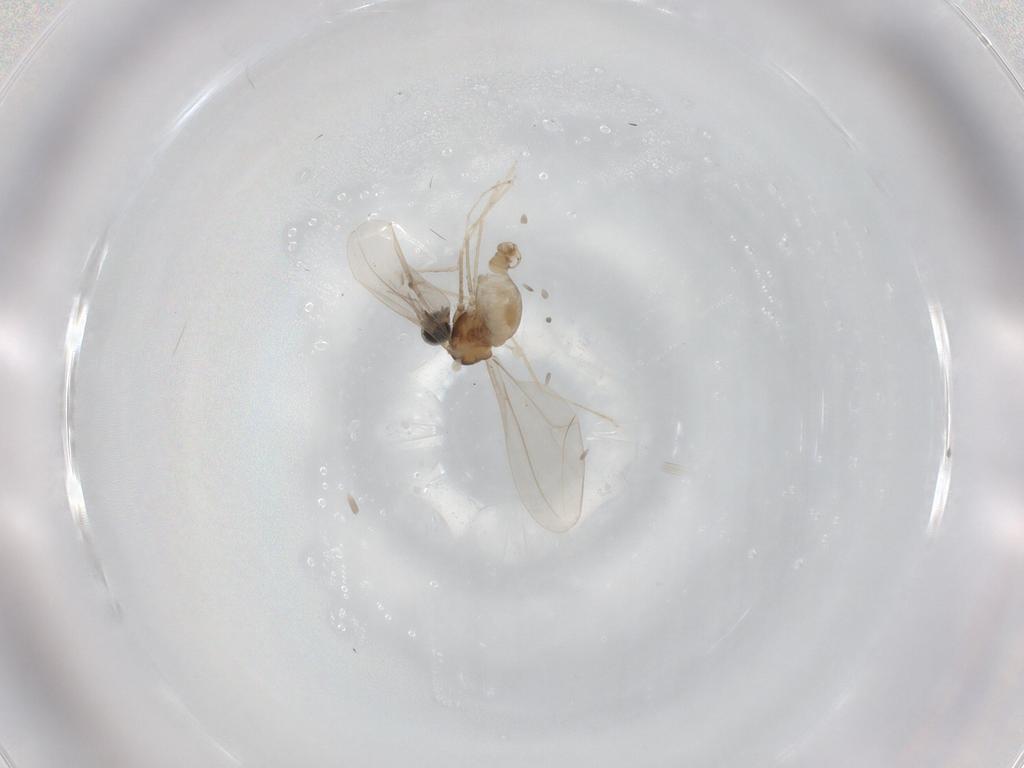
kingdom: Animalia
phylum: Arthropoda
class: Insecta
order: Diptera
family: Cecidomyiidae
